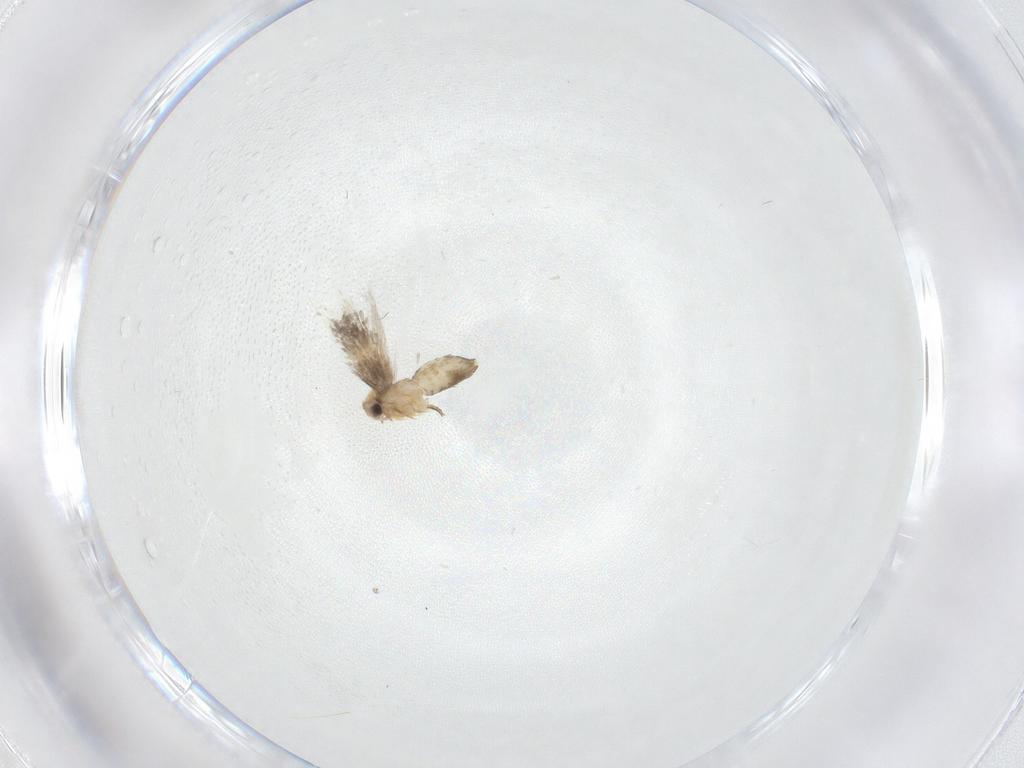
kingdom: Animalia
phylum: Arthropoda
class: Insecta
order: Lepidoptera
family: Nepticulidae
